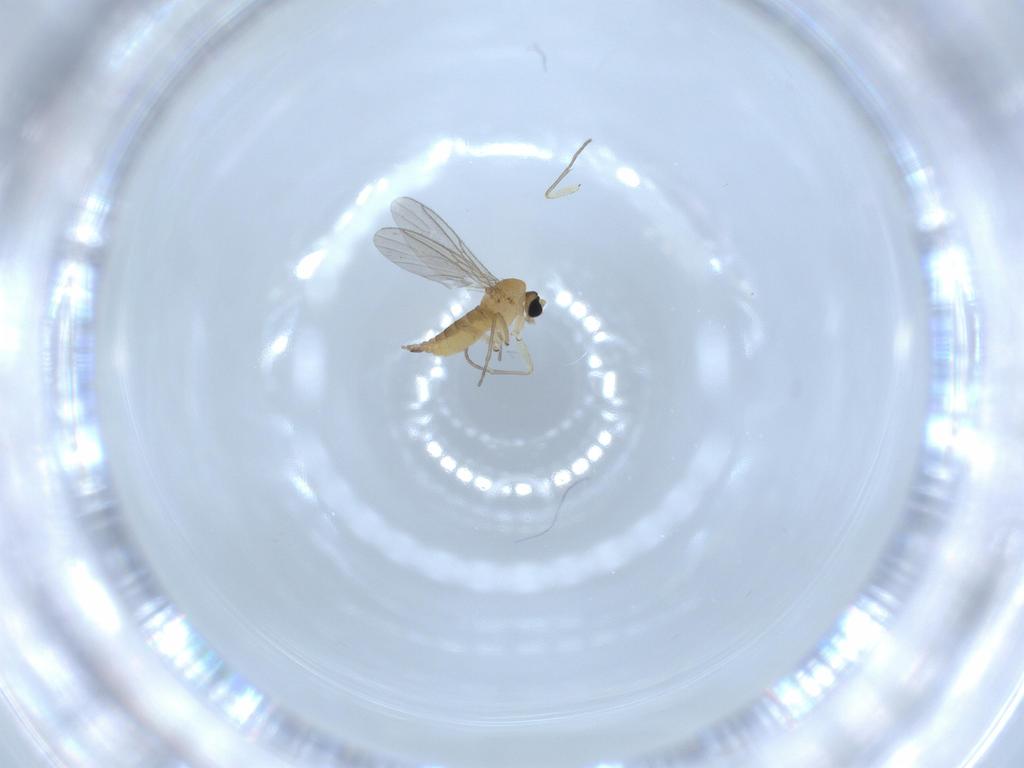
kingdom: Animalia
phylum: Arthropoda
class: Insecta
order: Diptera
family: Sciaridae
